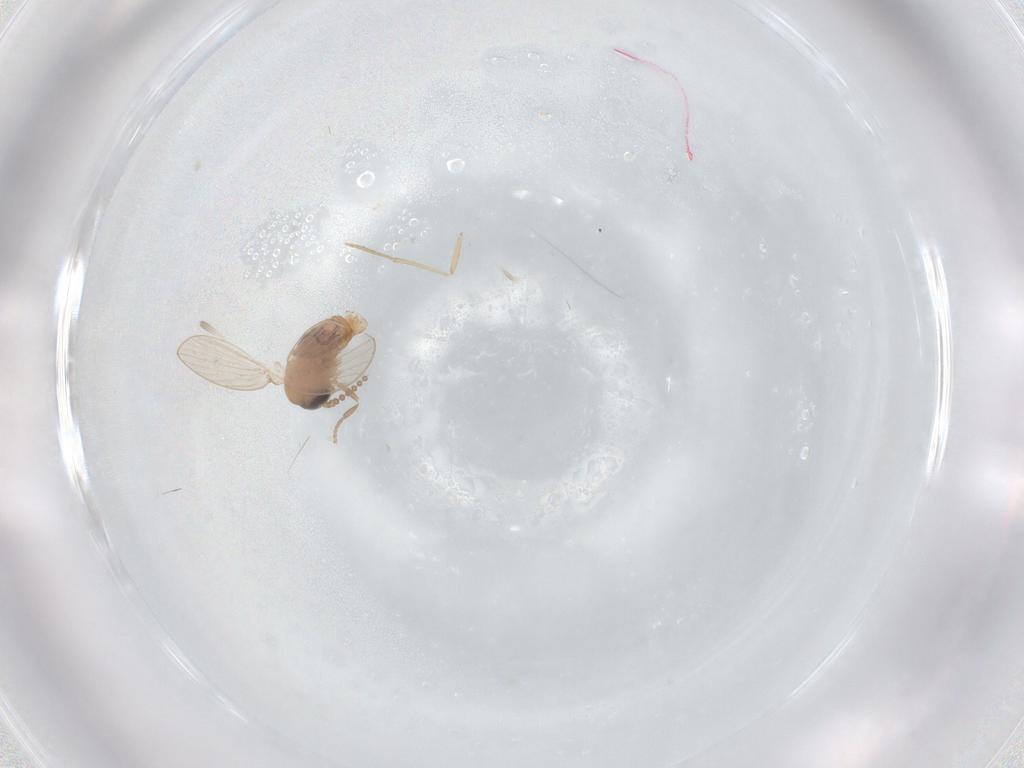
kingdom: Animalia
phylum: Arthropoda
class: Insecta
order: Diptera
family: Psychodidae
